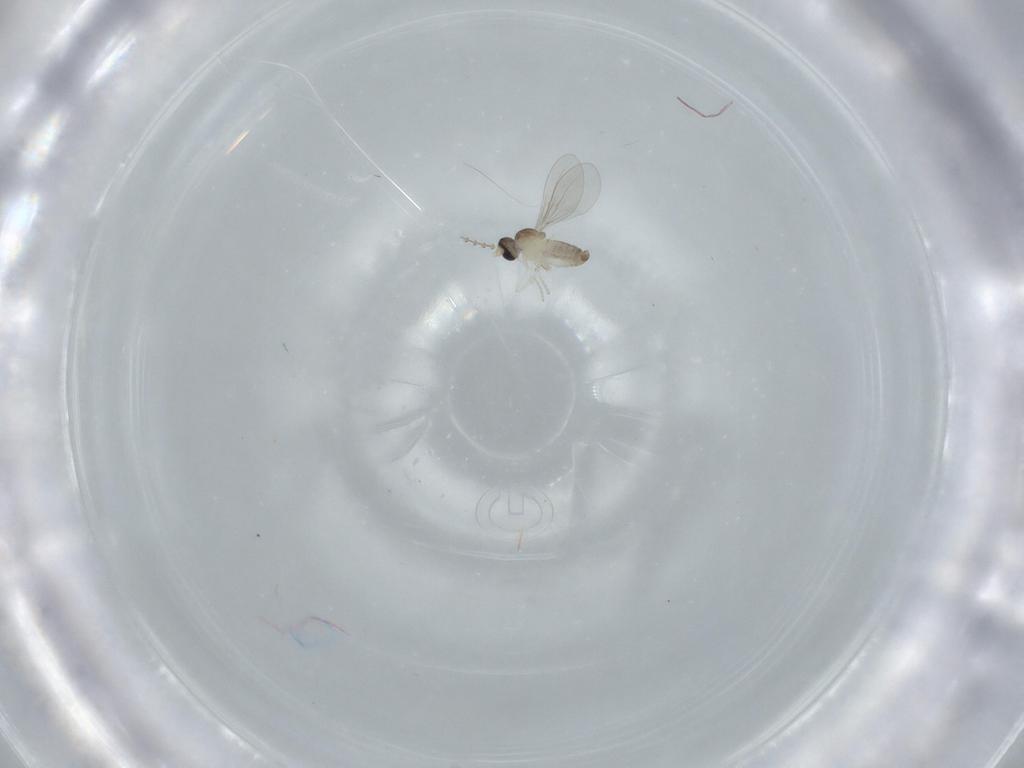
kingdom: Animalia
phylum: Arthropoda
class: Insecta
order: Diptera
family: Cecidomyiidae
